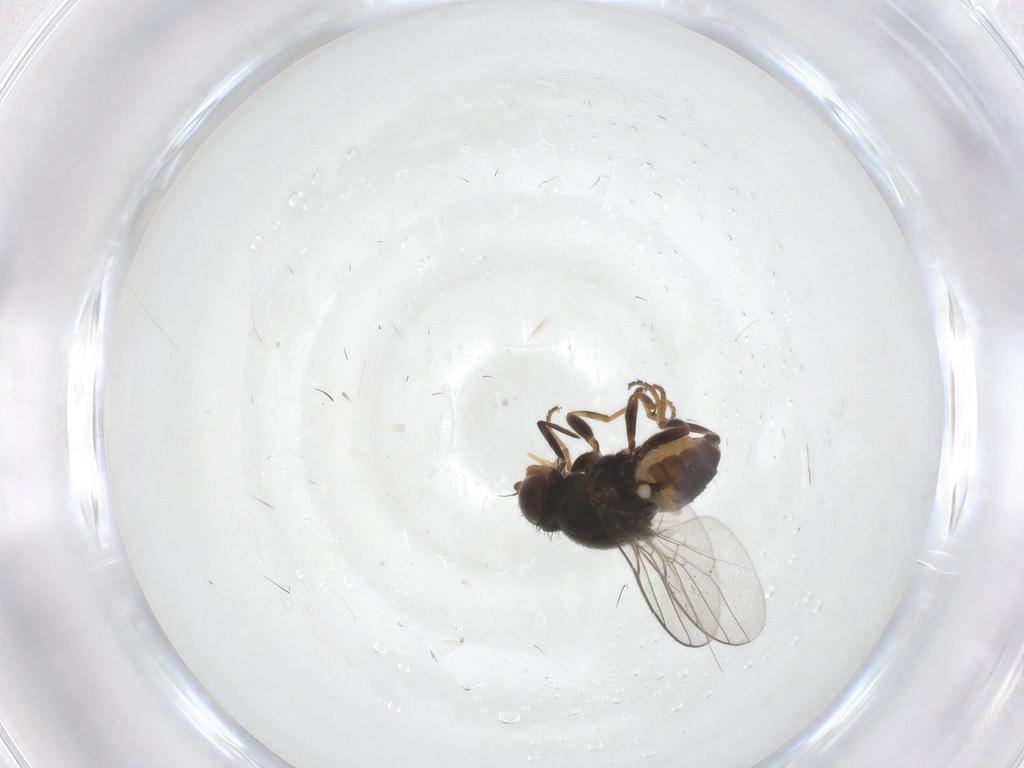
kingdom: Animalia
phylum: Arthropoda
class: Insecta
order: Diptera
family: Chloropidae
